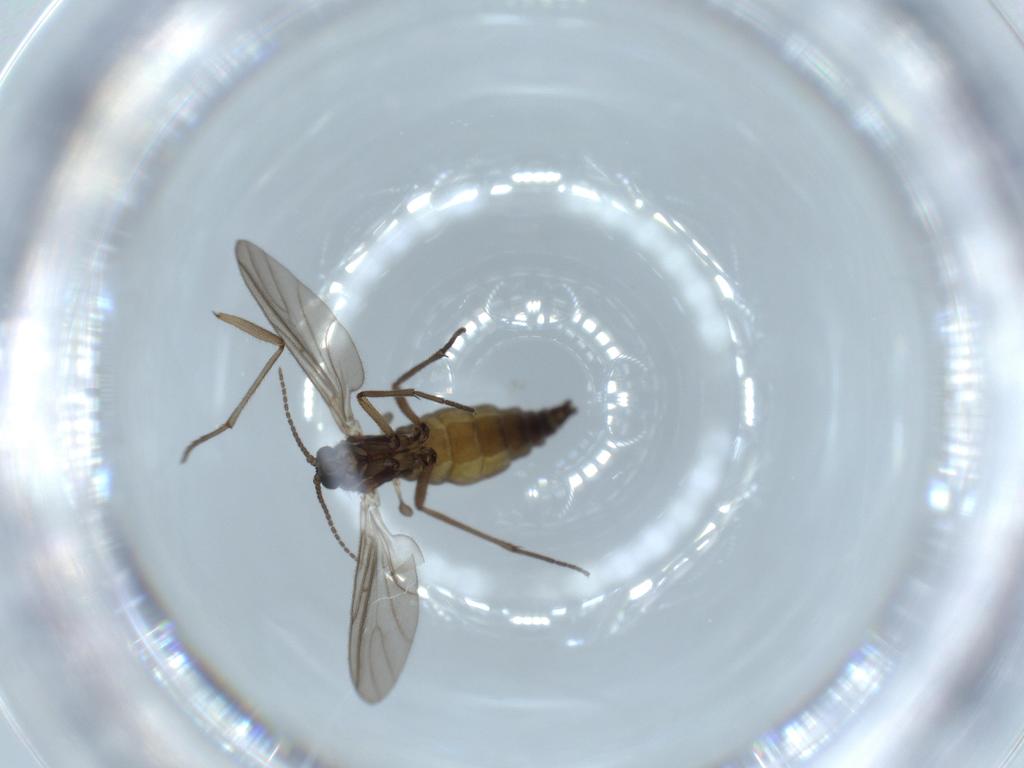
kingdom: Animalia
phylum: Arthropoda
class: Insecta
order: Diptera
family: Sciaridae
